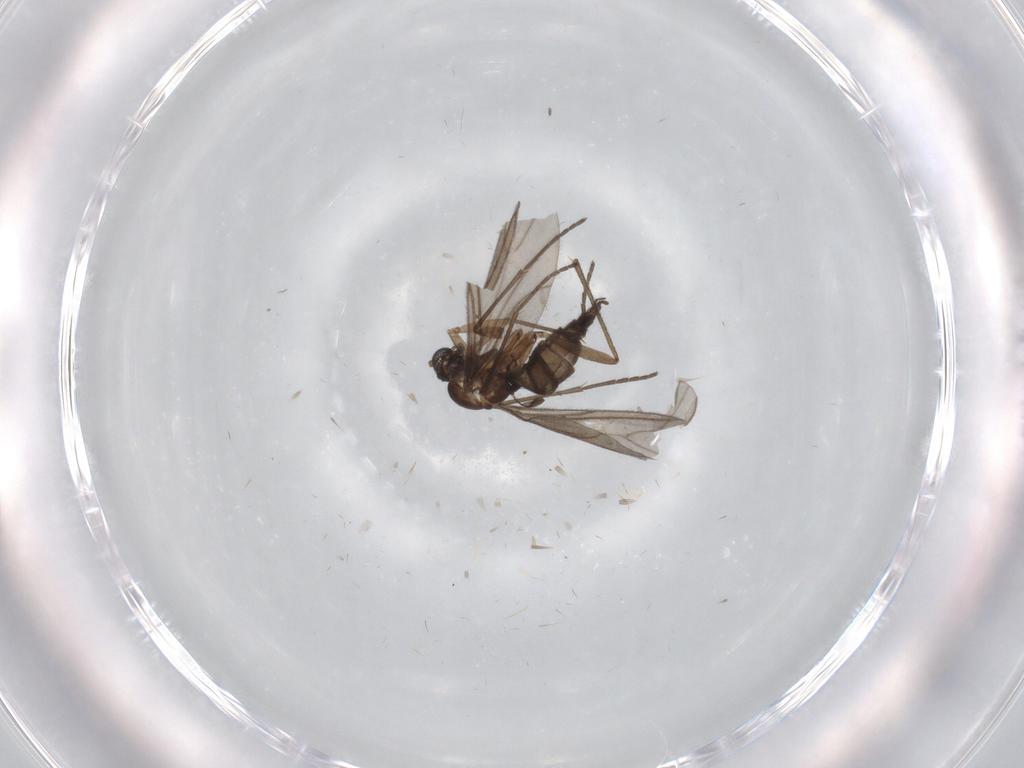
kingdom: Animalia
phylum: Arthropoda
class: Insecta
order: Diptera
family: Sciaridae
